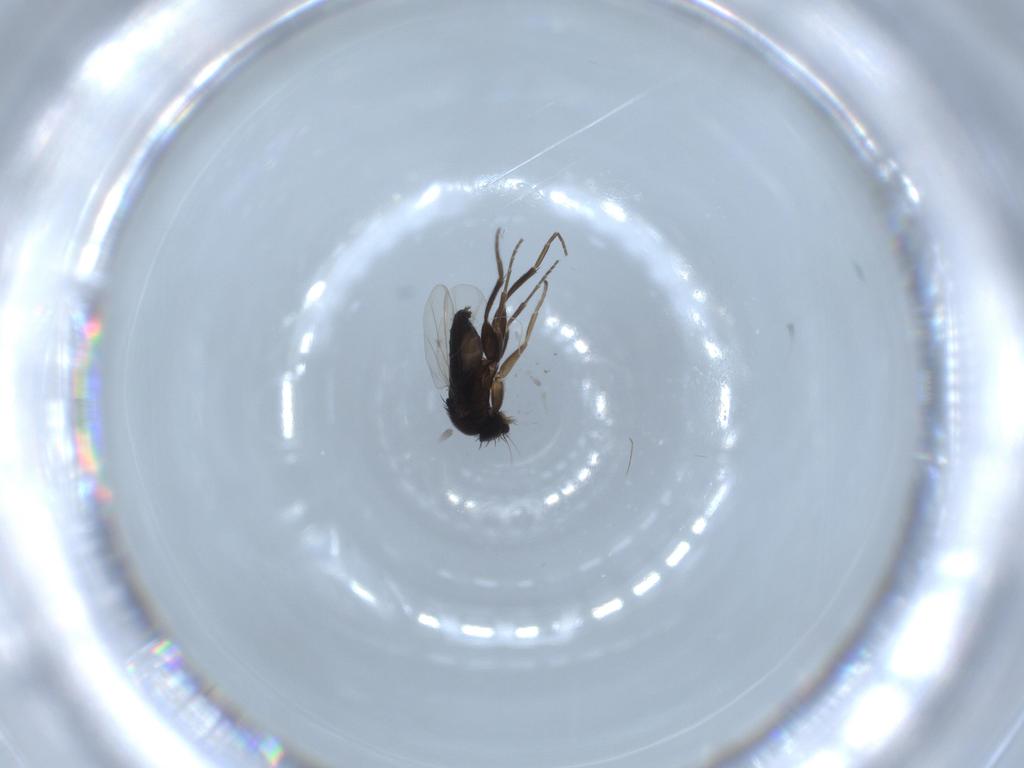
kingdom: Animalia
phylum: Arthropoda
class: Insecta
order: Diptera
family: Phoridae
